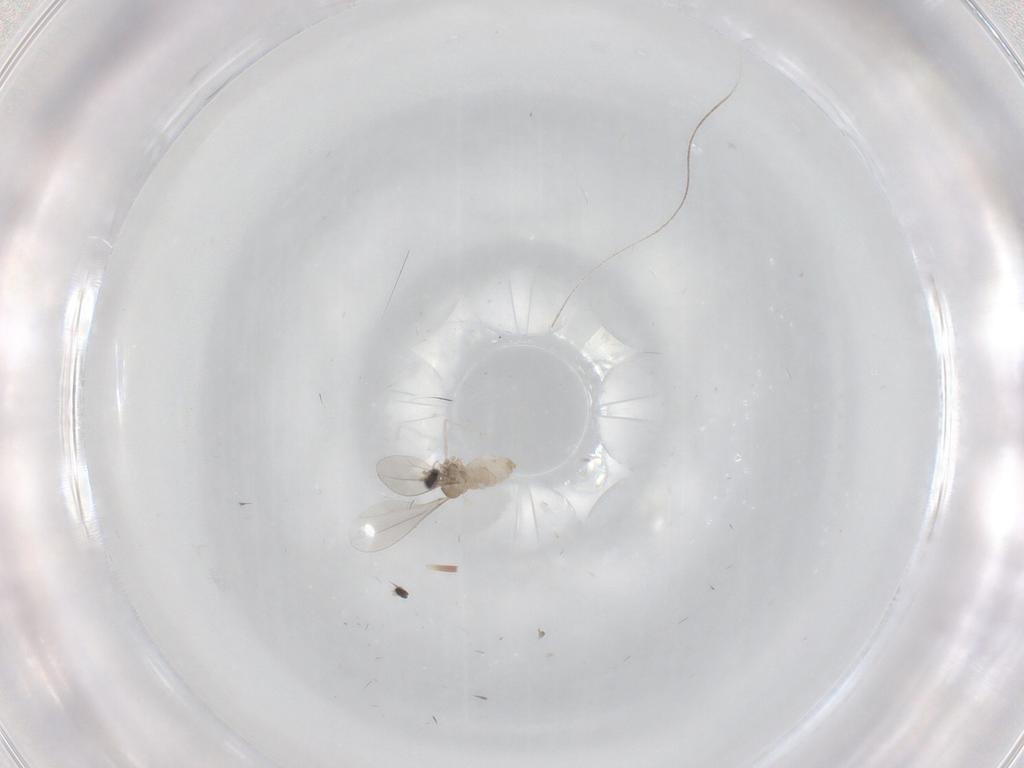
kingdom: Animalia
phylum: Arthropoda
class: Insecta
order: Diptera
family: Cecidomyiidae
